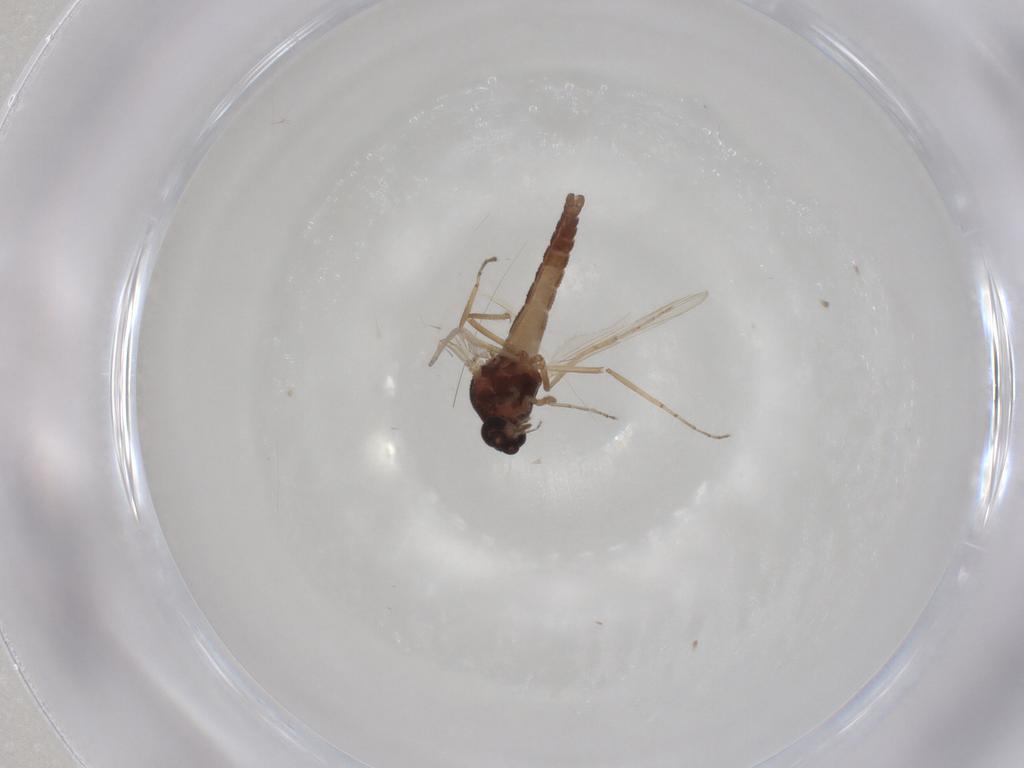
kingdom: Animalia
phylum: Arthropoda
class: Insecta
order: Diptera
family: Ceratopogonidae
